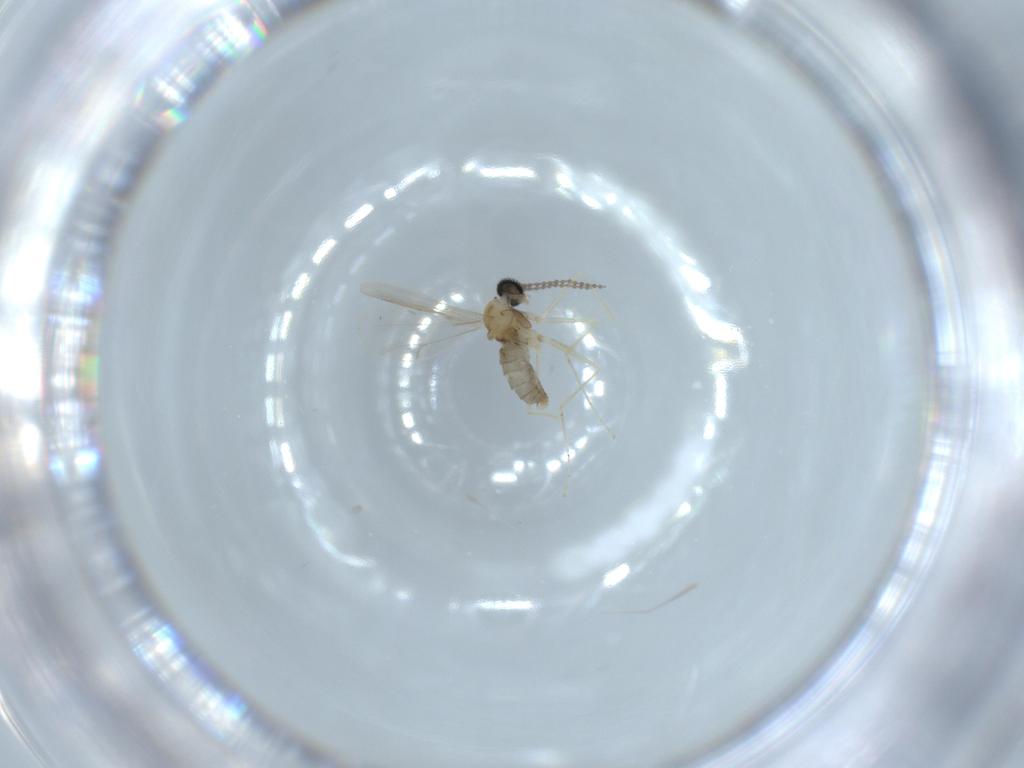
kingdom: Animalia
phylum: Arthropoda
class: Insecta
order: Diptera
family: Cecidomyiidae
